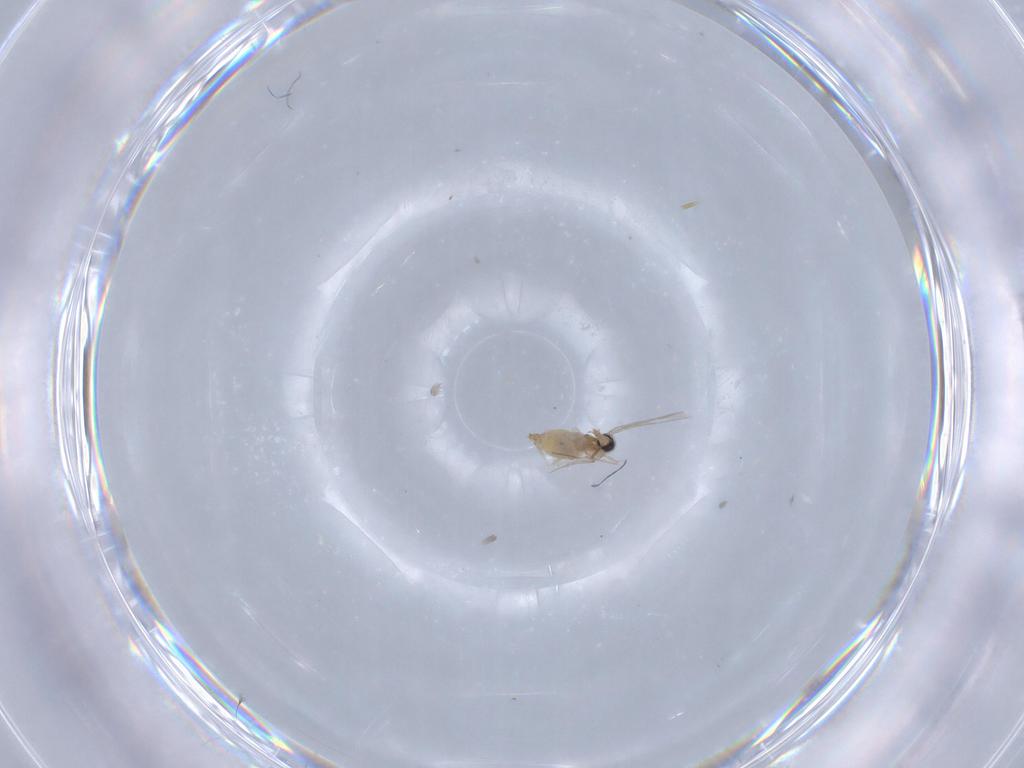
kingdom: Animalia
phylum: Arthropoda
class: Insecta
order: Diptera
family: Cecidomyiidae
